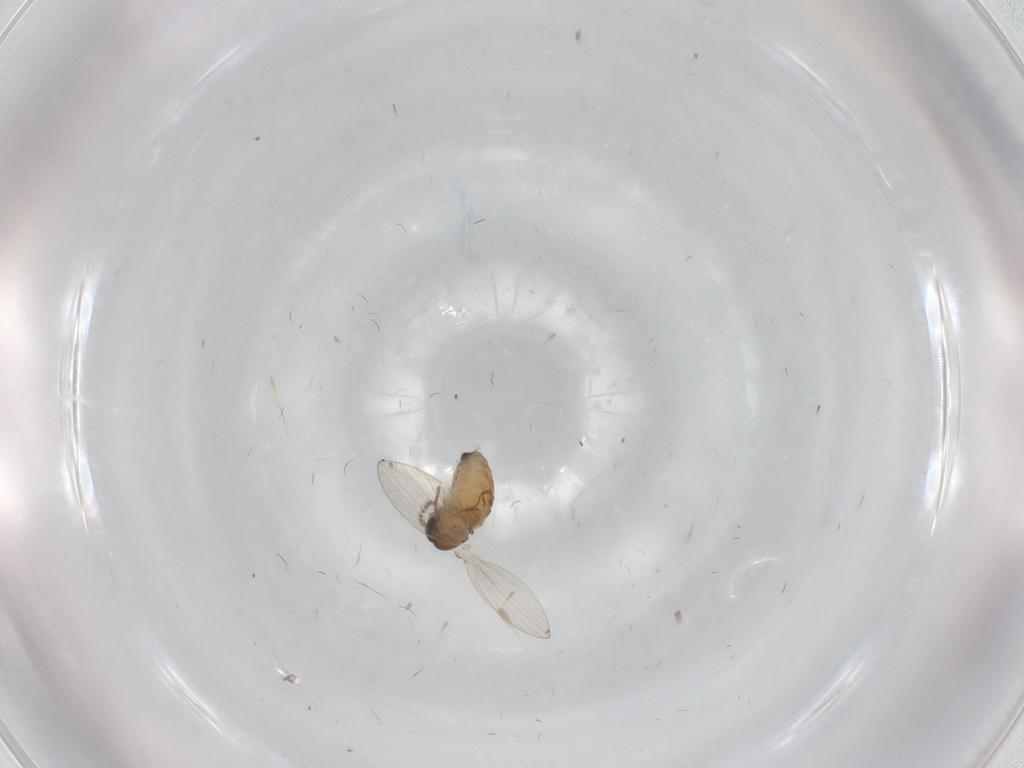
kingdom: Animalia
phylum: Arthropoda
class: Insecta
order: Diptera
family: Psychodidae
